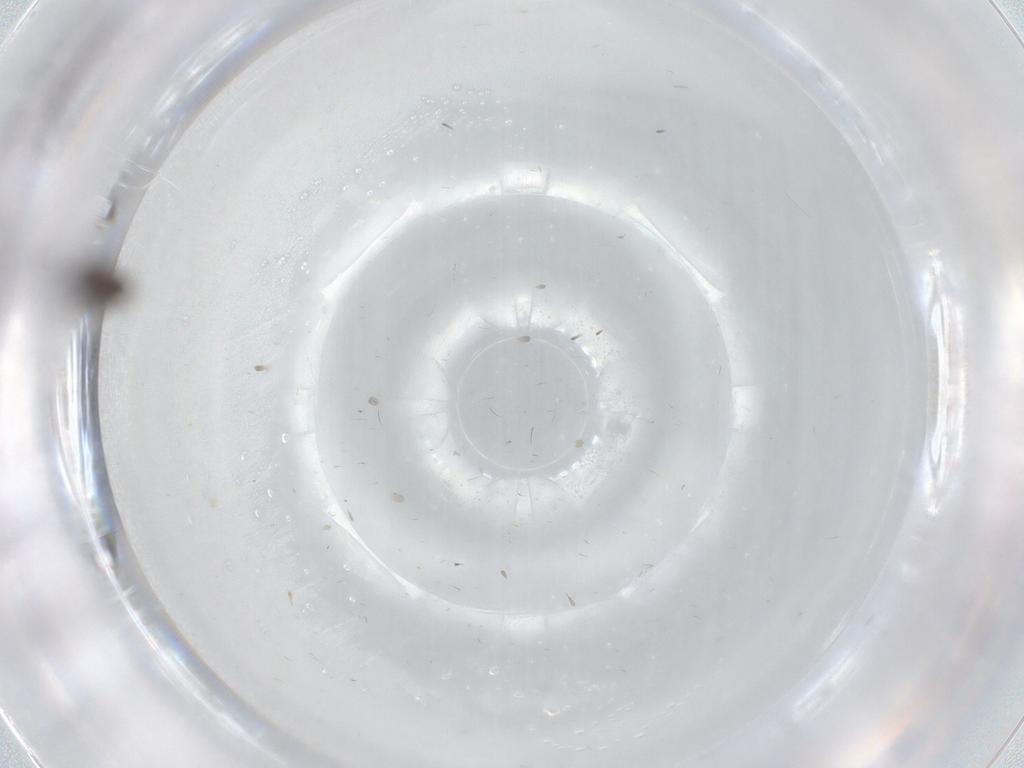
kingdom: Animalia
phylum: Arthropoda
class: Insecta
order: Diptera
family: Sciaridae
